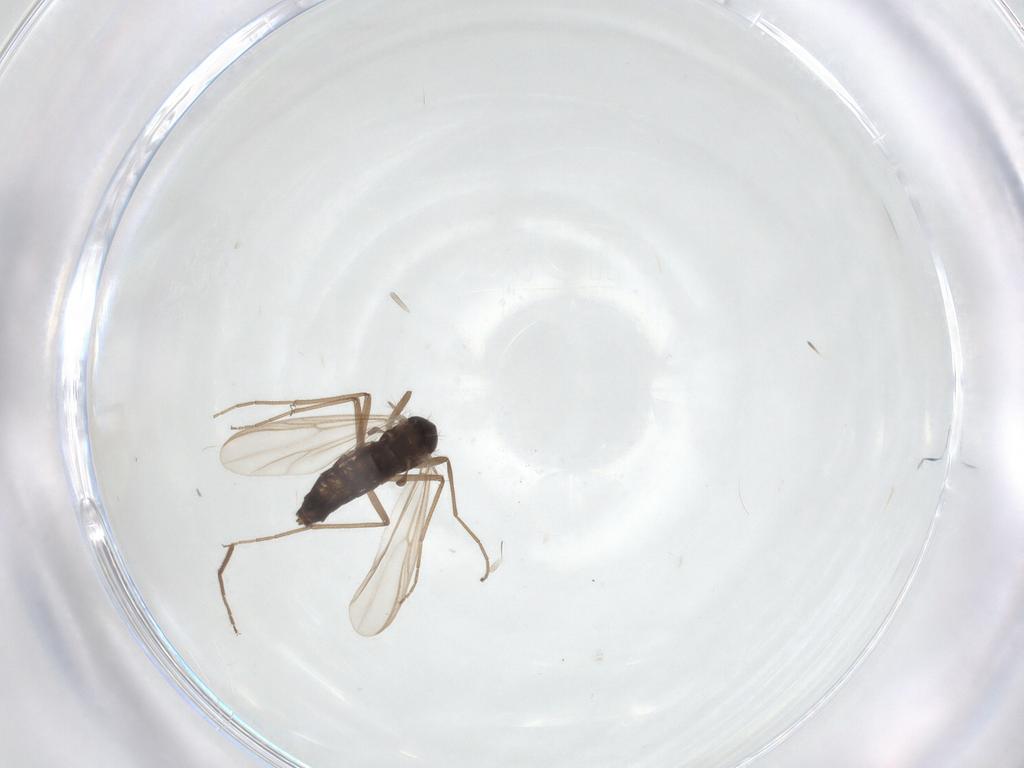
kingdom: Animalia
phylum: Arthropoda
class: Insecta
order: Diptera
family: Chironomidae
